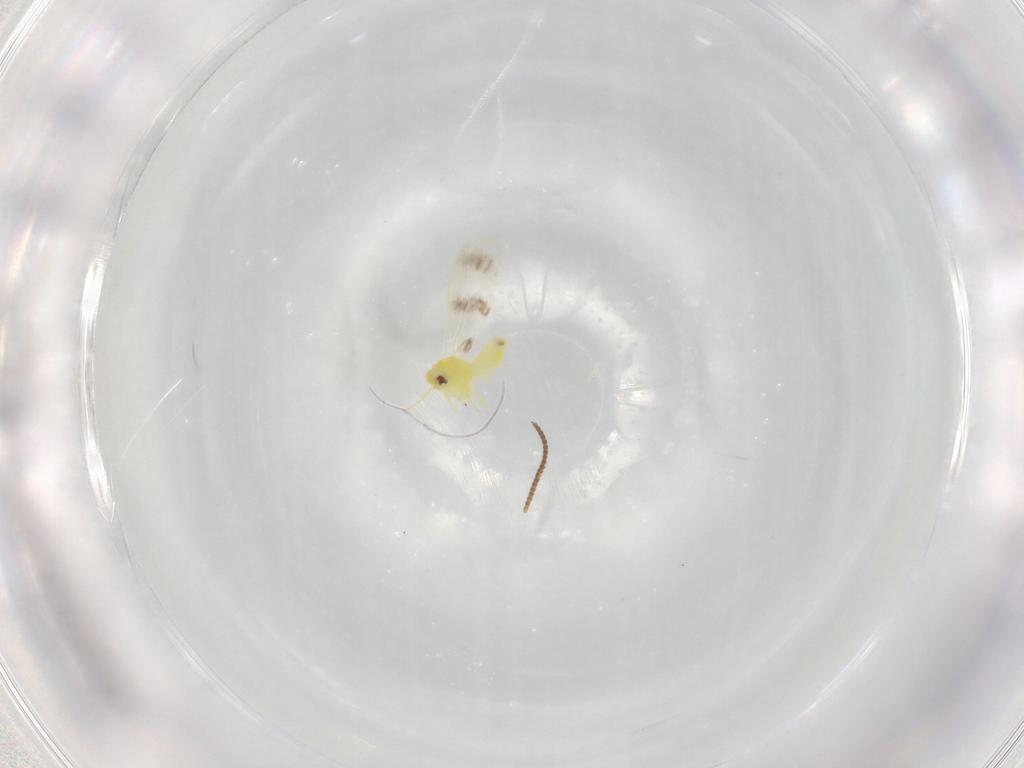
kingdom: Animalia
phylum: Arthropoda
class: Insecta
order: Hemiptera
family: Aleyrodidae
